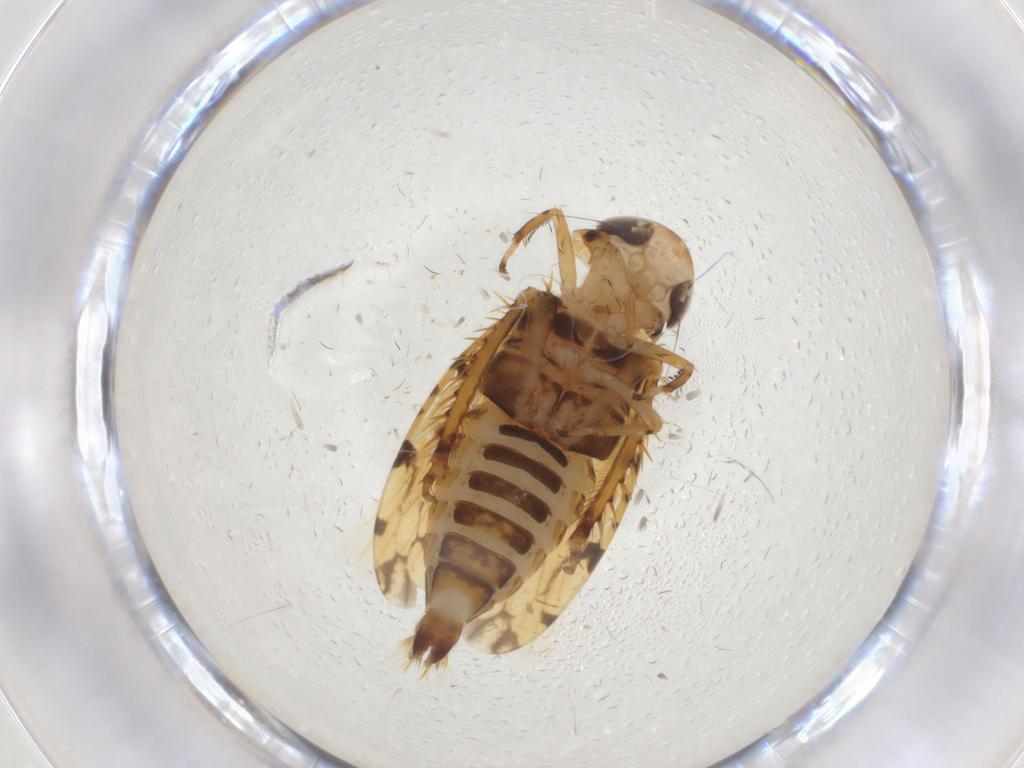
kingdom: Animalia
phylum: Arthropoda
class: Insecta
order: Hemiptera
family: Cicadellidae
